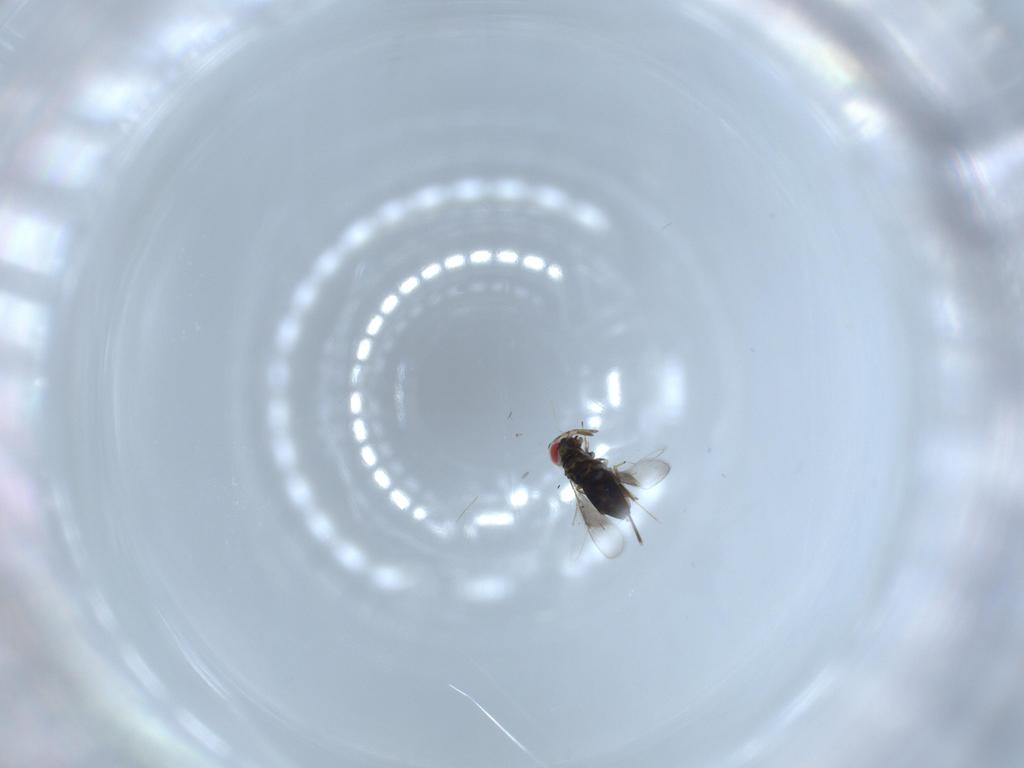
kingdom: Animalia
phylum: Arthropoda
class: Insecta
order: Hymenoptera
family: Azotidae
